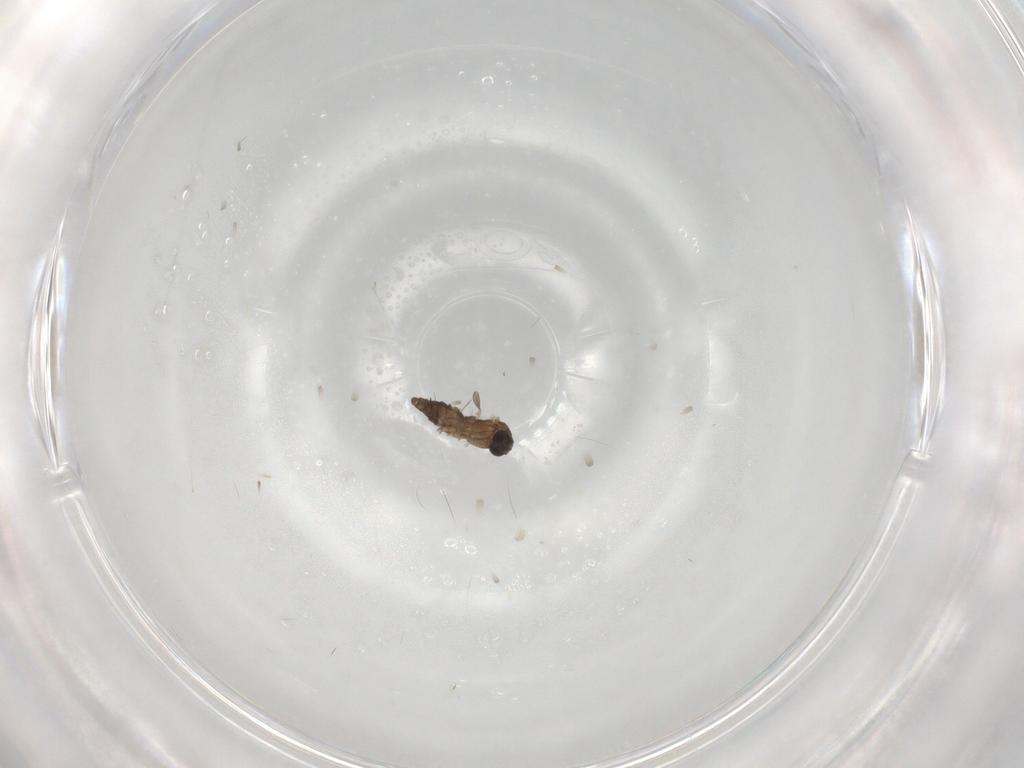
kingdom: Animalia
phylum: Arthropoda
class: Insecta
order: Diptera
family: Cecidomyiidae
